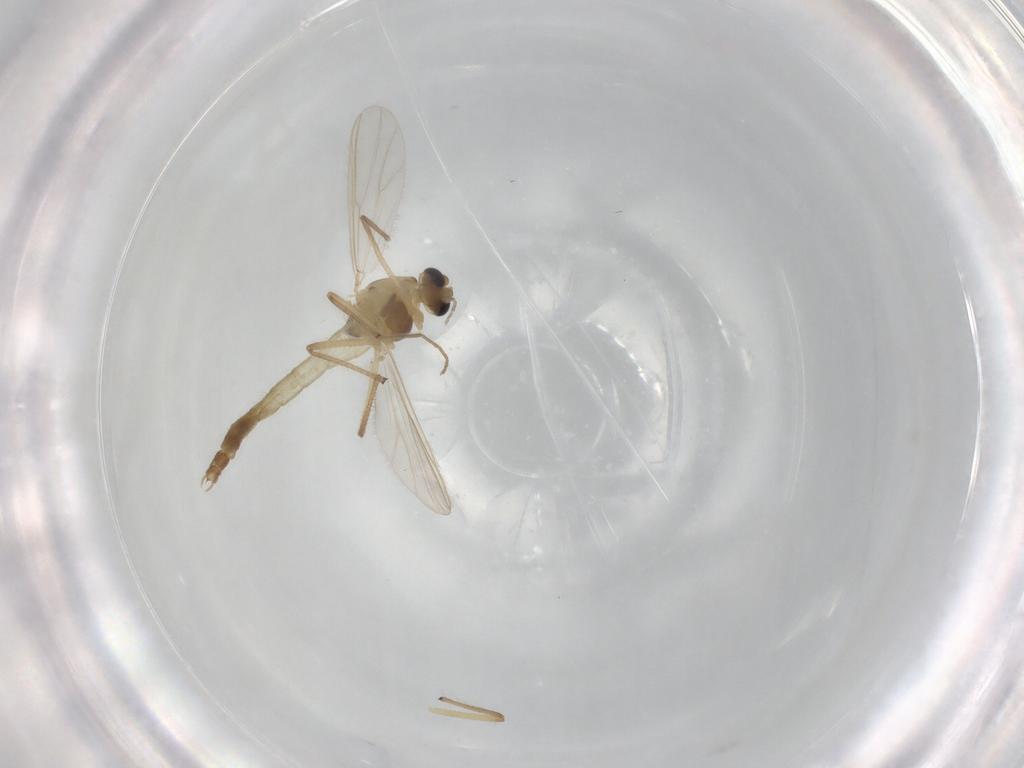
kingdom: Animalia
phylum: Arthropoda
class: Insecta
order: Diptera
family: Chironomidae
